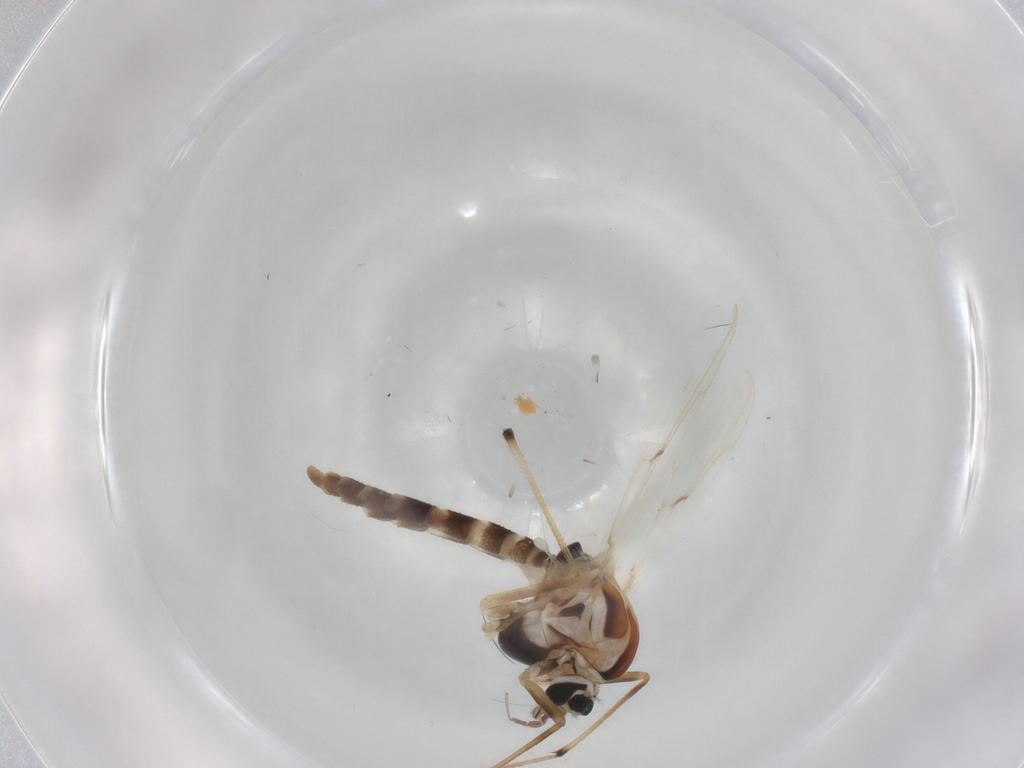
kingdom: Animalia
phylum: Arthropoda
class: Insecta
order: Diptera
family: Chironomidae
